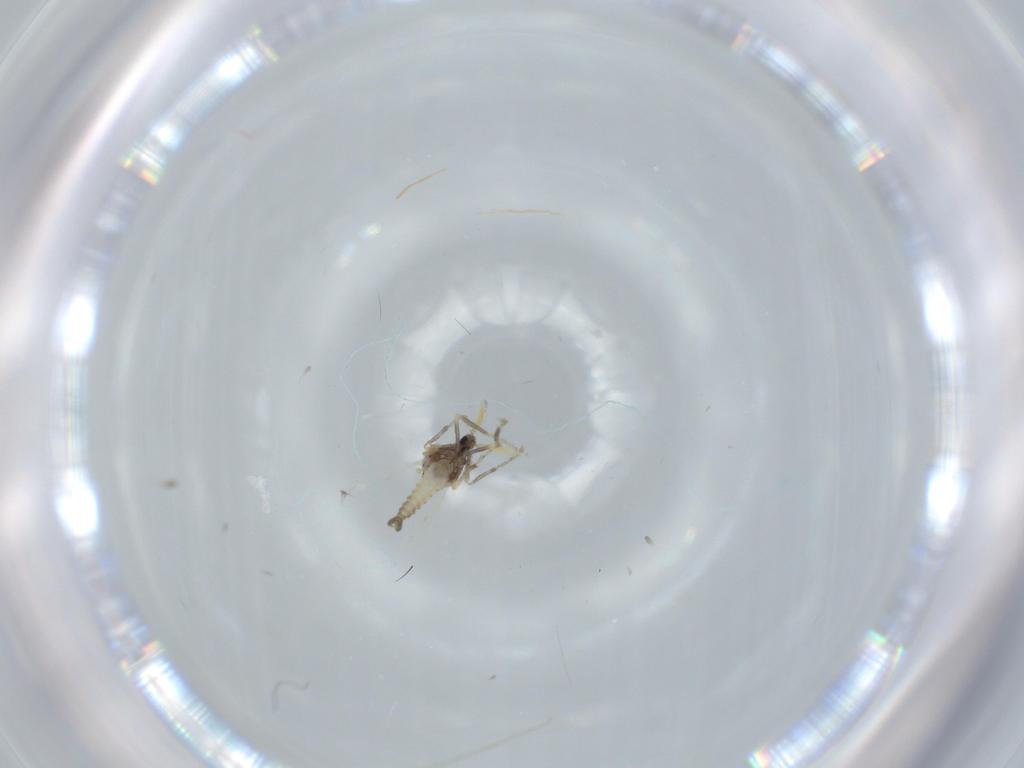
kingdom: Animalia
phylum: Arthropoda
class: Insecta
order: Diptera
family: Ceratopogonidae
